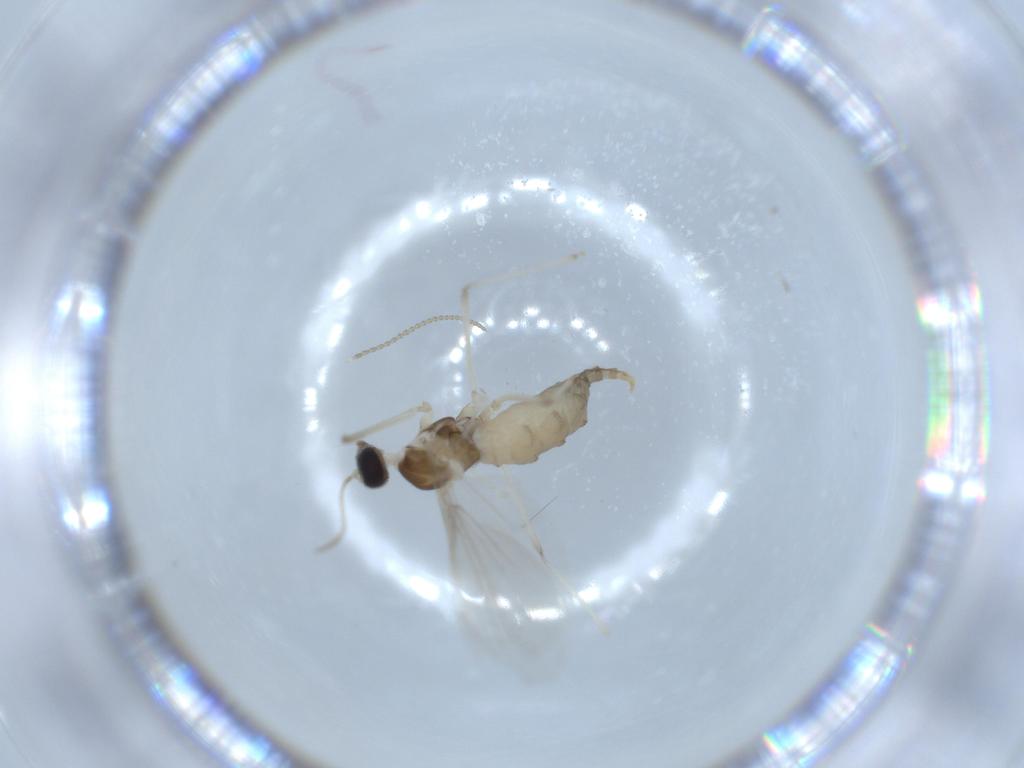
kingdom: Animalia
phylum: Arthropoda
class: Insecta
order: Diptera
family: Cecidomyiidae
